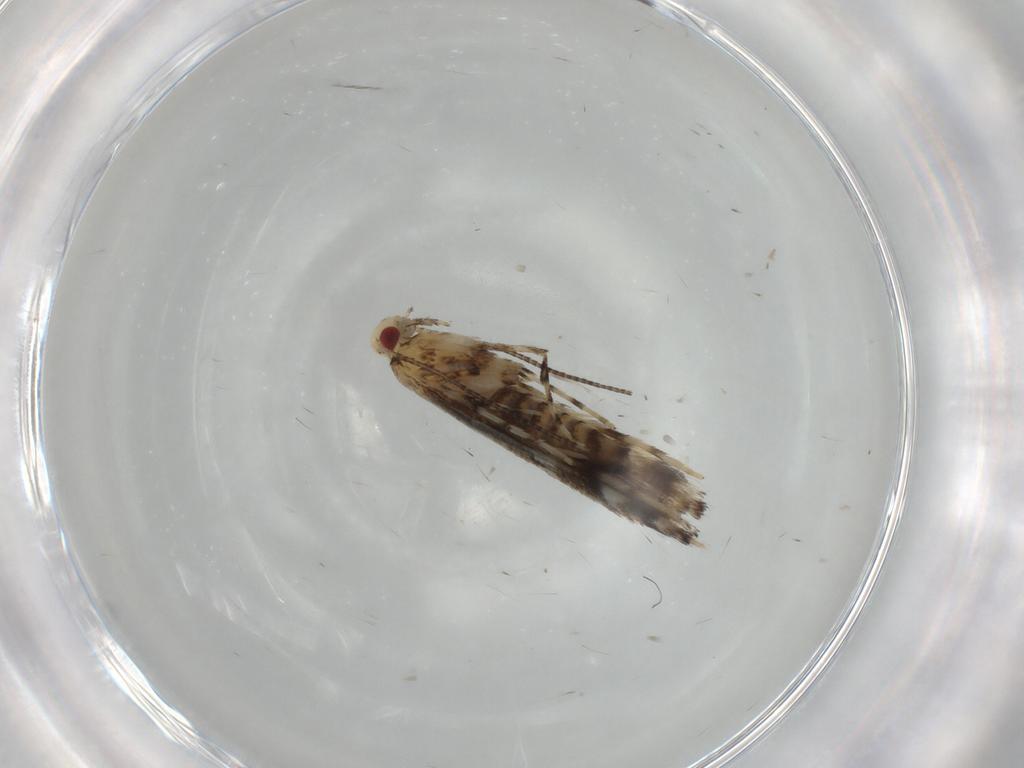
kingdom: Animalia
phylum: Arthropoda
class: Insecta
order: Lepidoptera
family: Gracillariidae
